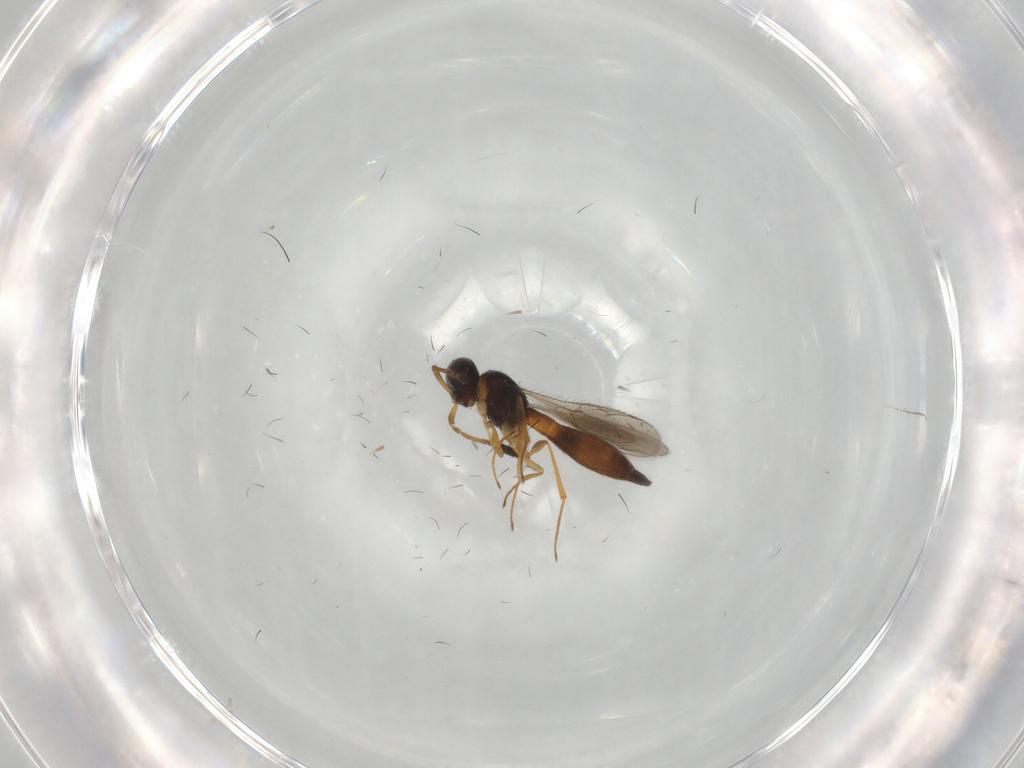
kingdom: Animalia
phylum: Arthropoda
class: Insecta
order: Hymenoptera
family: Scelionidae
